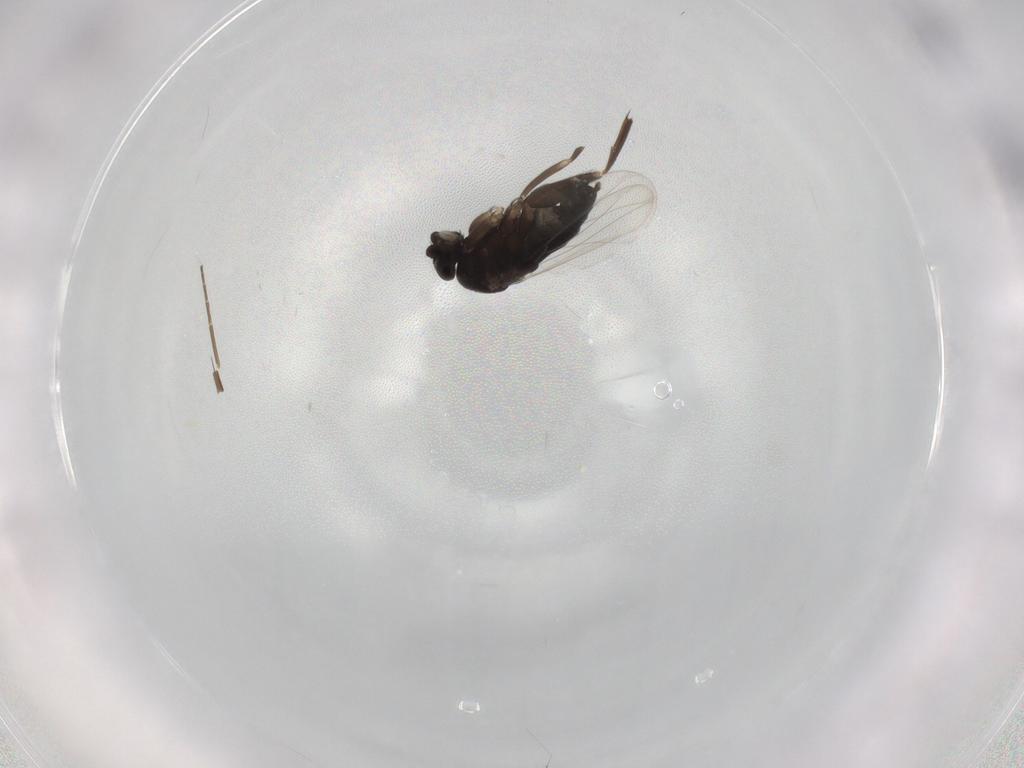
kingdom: Animalia
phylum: Arthropoda
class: Insecta
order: Diptera
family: Phoridae
